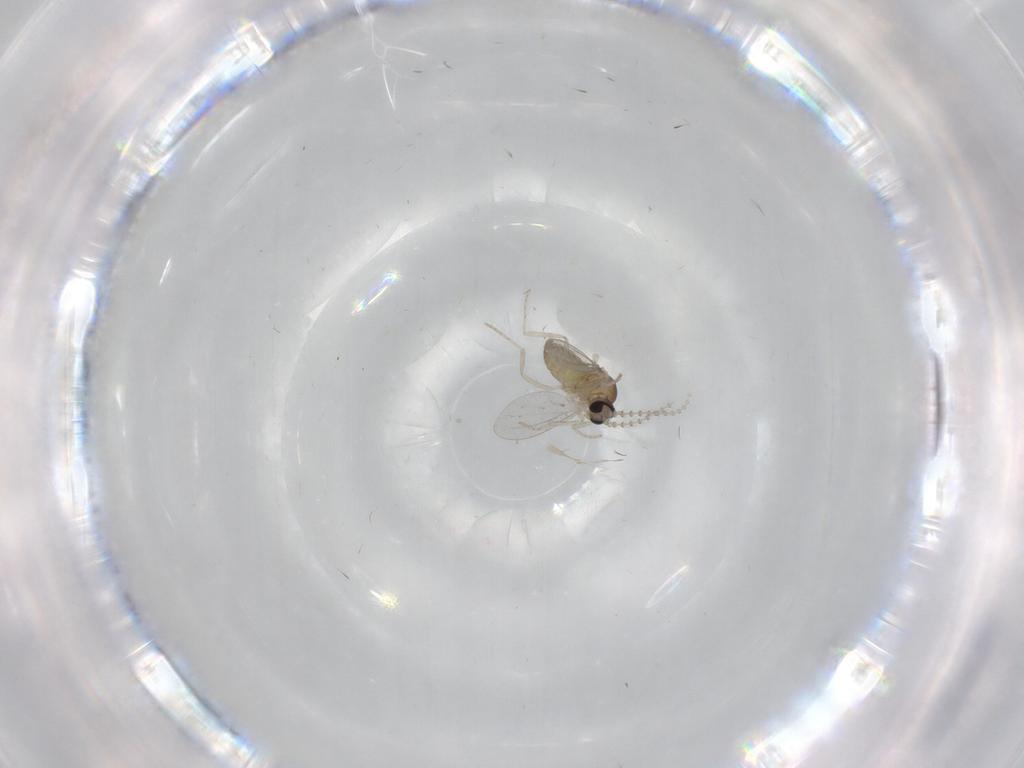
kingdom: Animalia
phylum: Arthropoda
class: Insecta
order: Diptera
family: Cecidomyiidae
